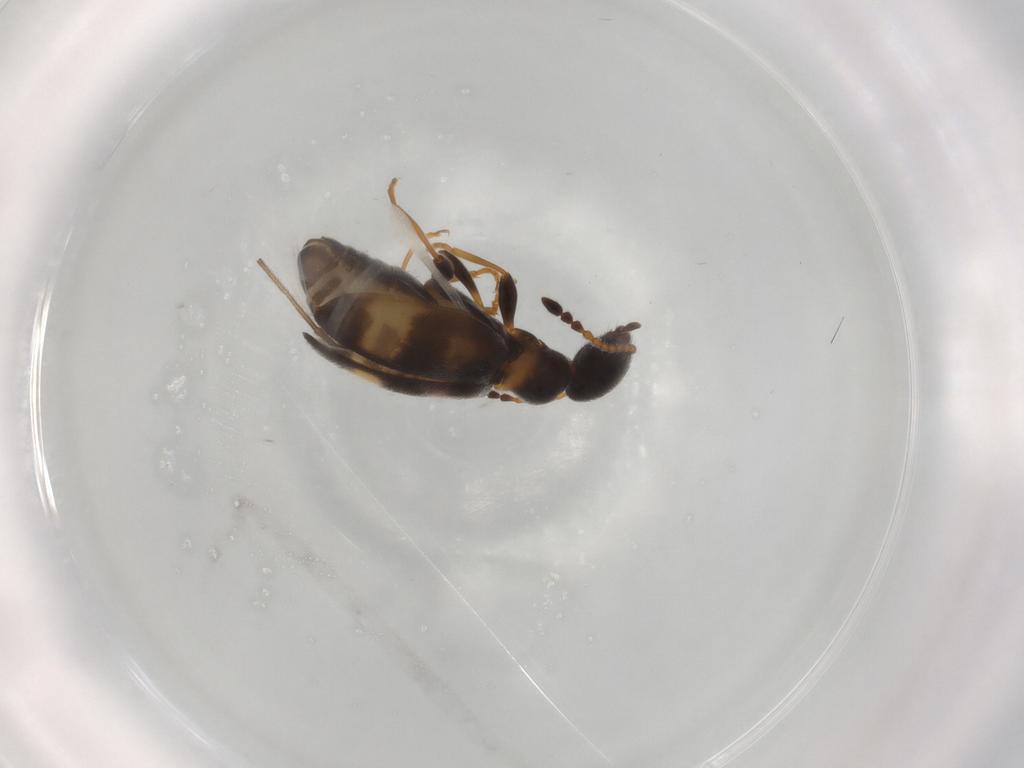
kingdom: Animalia
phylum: Arthropoda
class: Insecta
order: Coleoptera
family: Anthicidae
